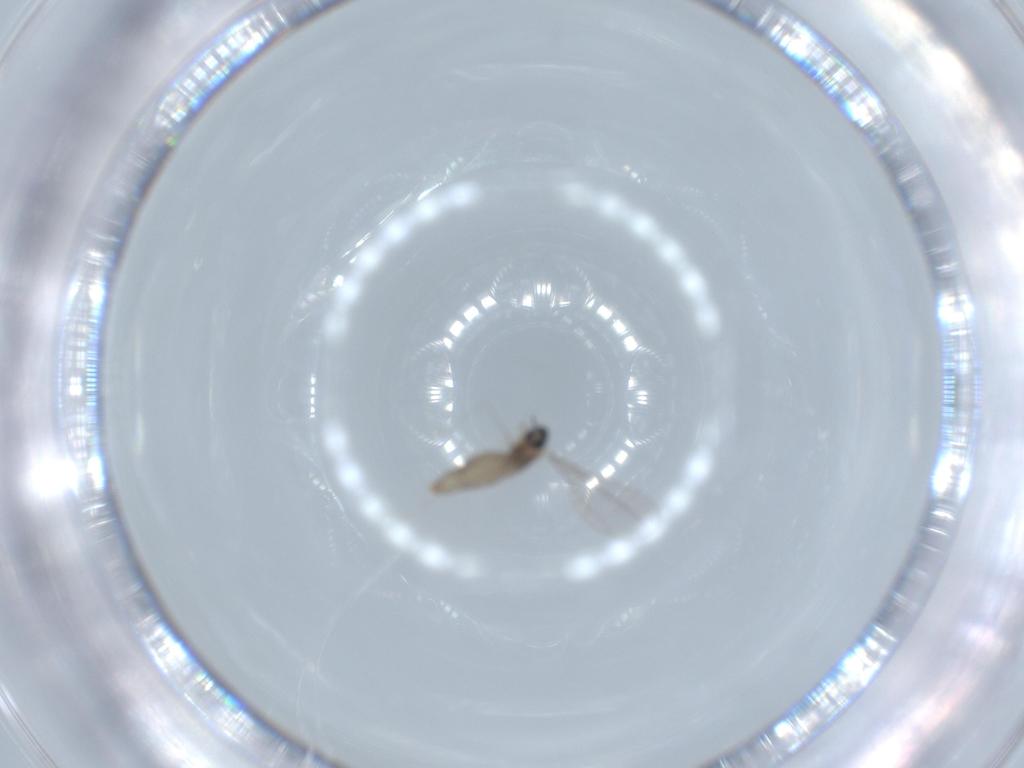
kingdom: Animalia
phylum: Arthropoda
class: Insecta
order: Diptera
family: Cecidomyiidae
